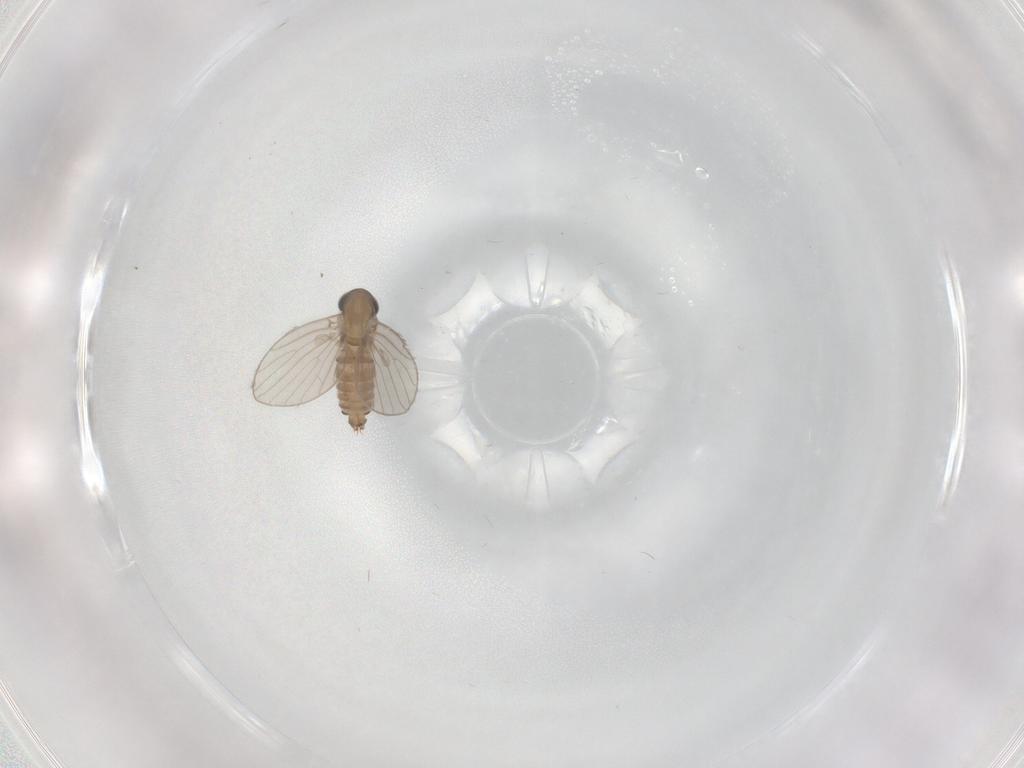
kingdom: Animalia
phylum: Arthropoda
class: Insecta
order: Diptera
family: Psychodidae
